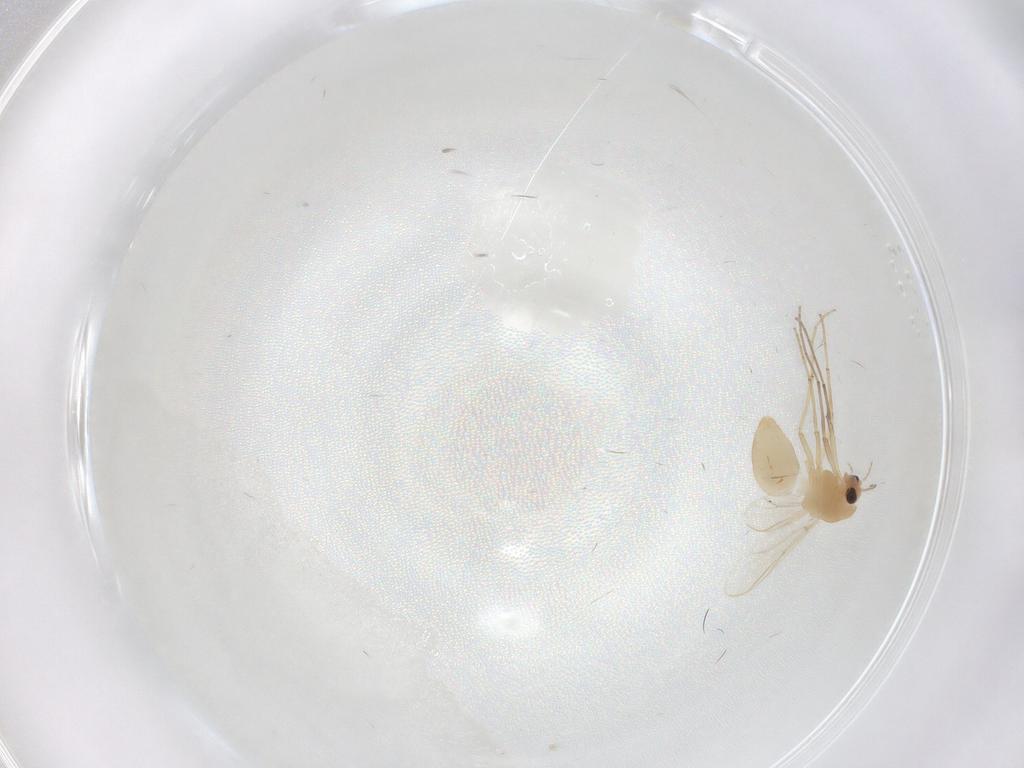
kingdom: Animalia
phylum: Arthropoda
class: Insecta
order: Diptera
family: Chironomidae
